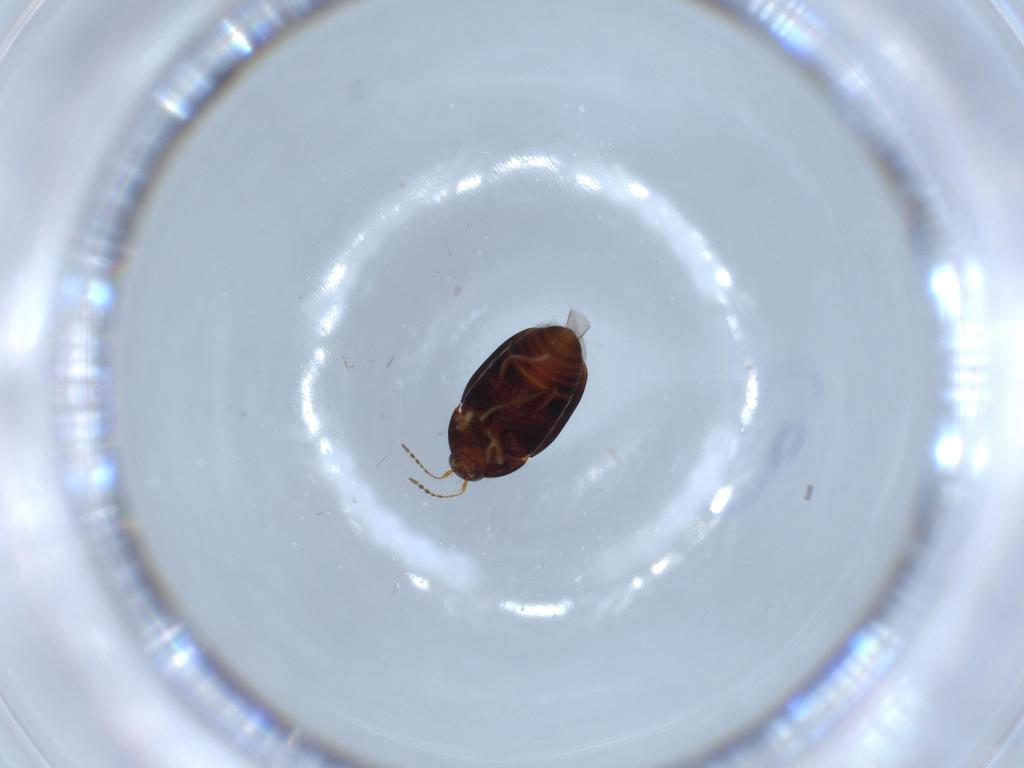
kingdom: Animalia
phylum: Arthropoda
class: Insecta
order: Coleoptera
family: Staphylinidae
